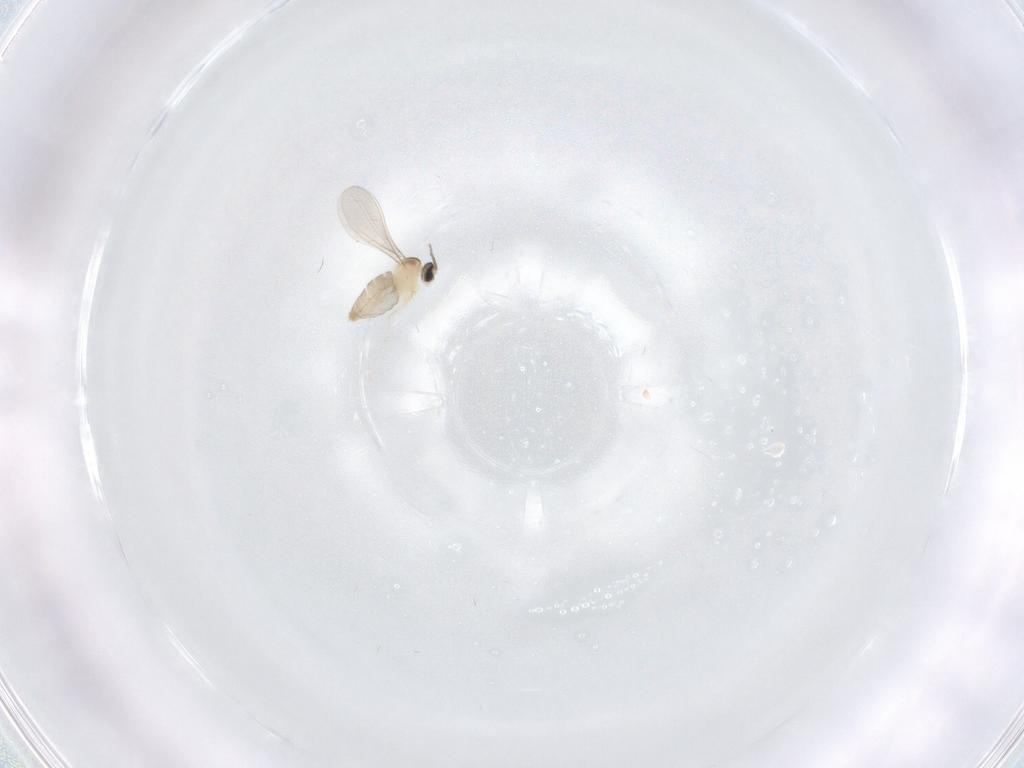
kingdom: Animalia
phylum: Arthropoda
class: Insecta
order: Diptera
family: Cecidomyiidae
